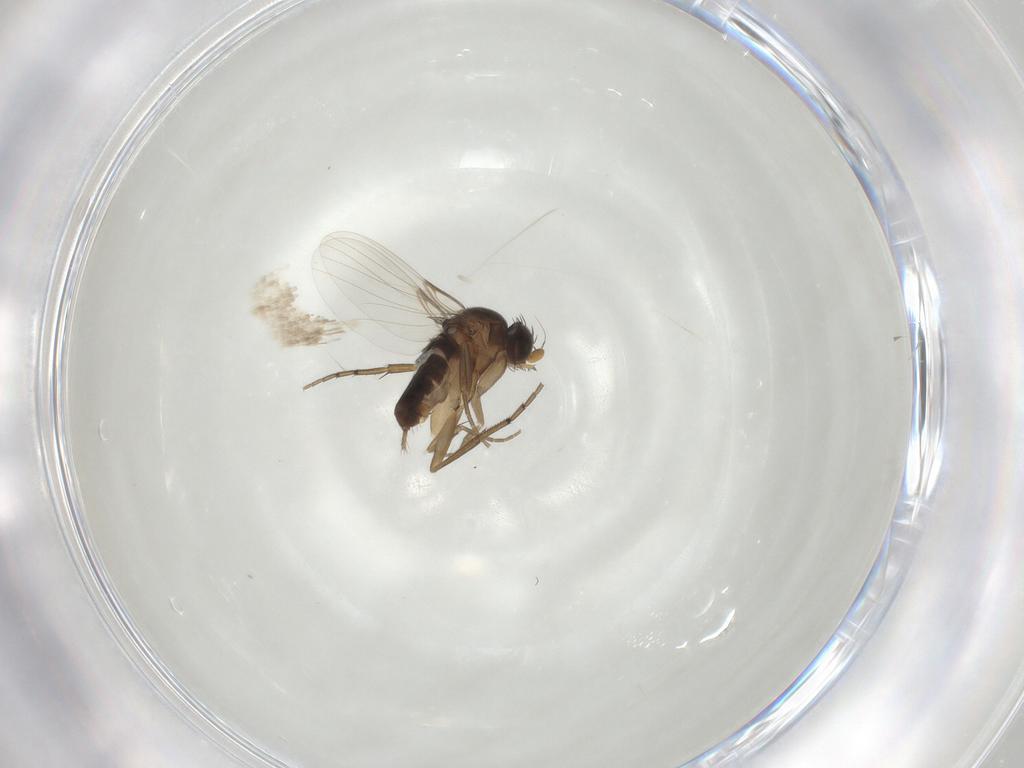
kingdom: Animalia
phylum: Arthropoda
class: Insecta
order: Diptera
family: Phoridae
